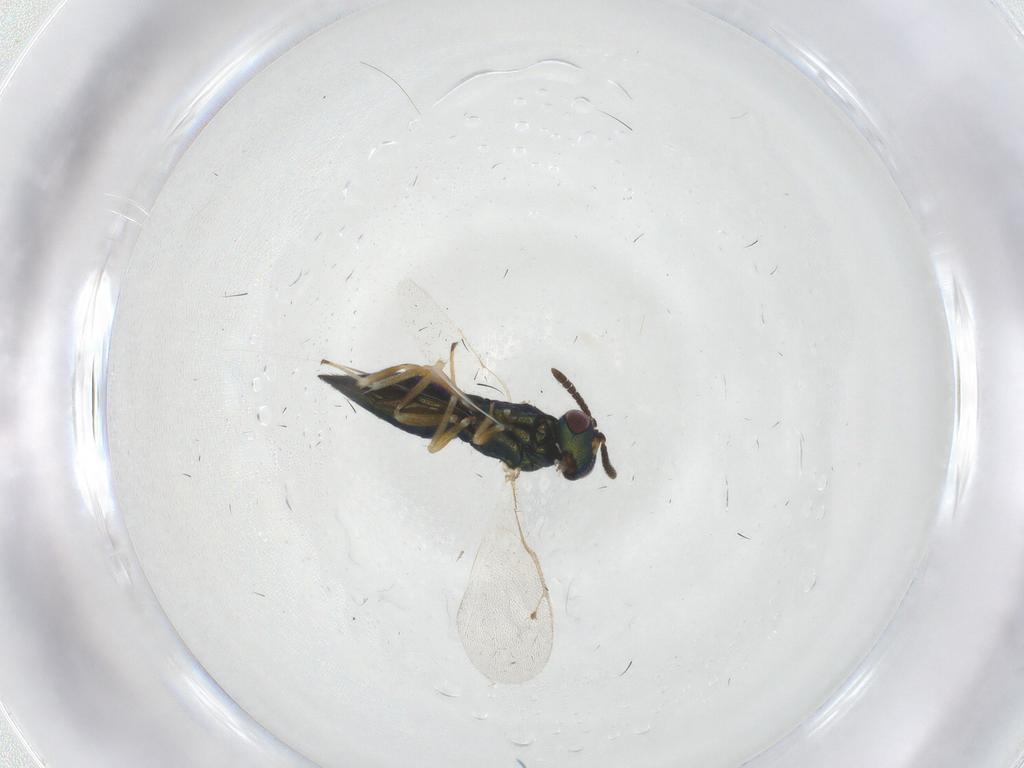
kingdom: Animalia
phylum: Arthropoda
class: Insecta
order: Hymenoptera
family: Pteromalidae
